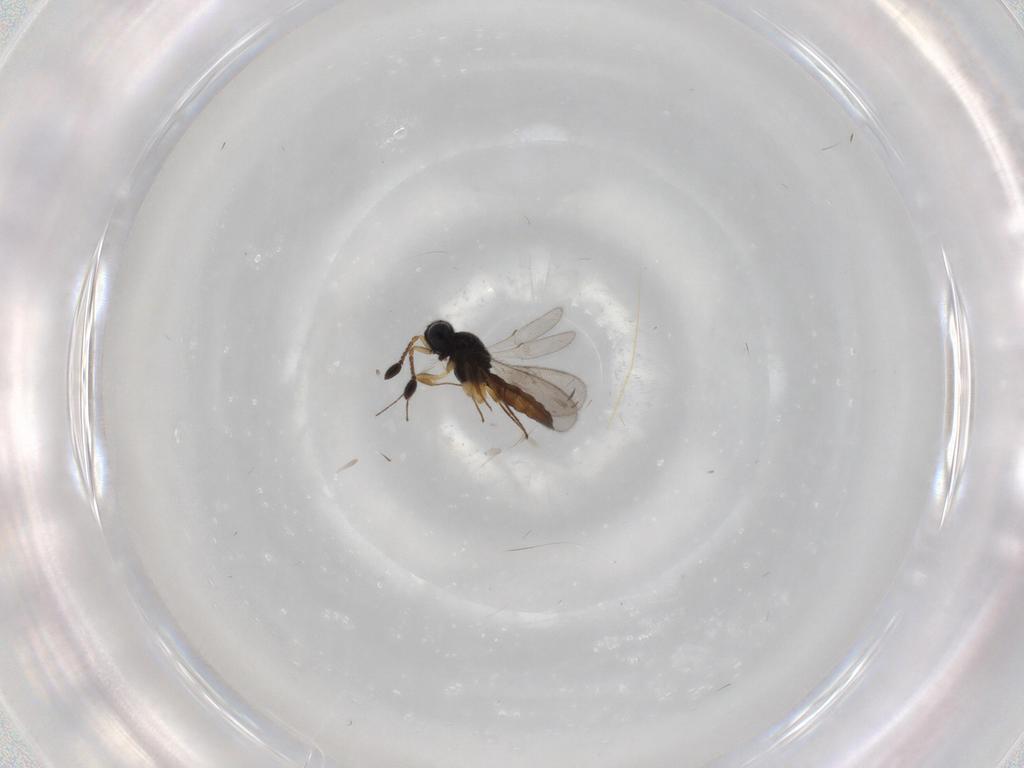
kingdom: Animalia
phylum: Arthropoda
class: Insecta
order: Hymenoptera
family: Scelionidae
